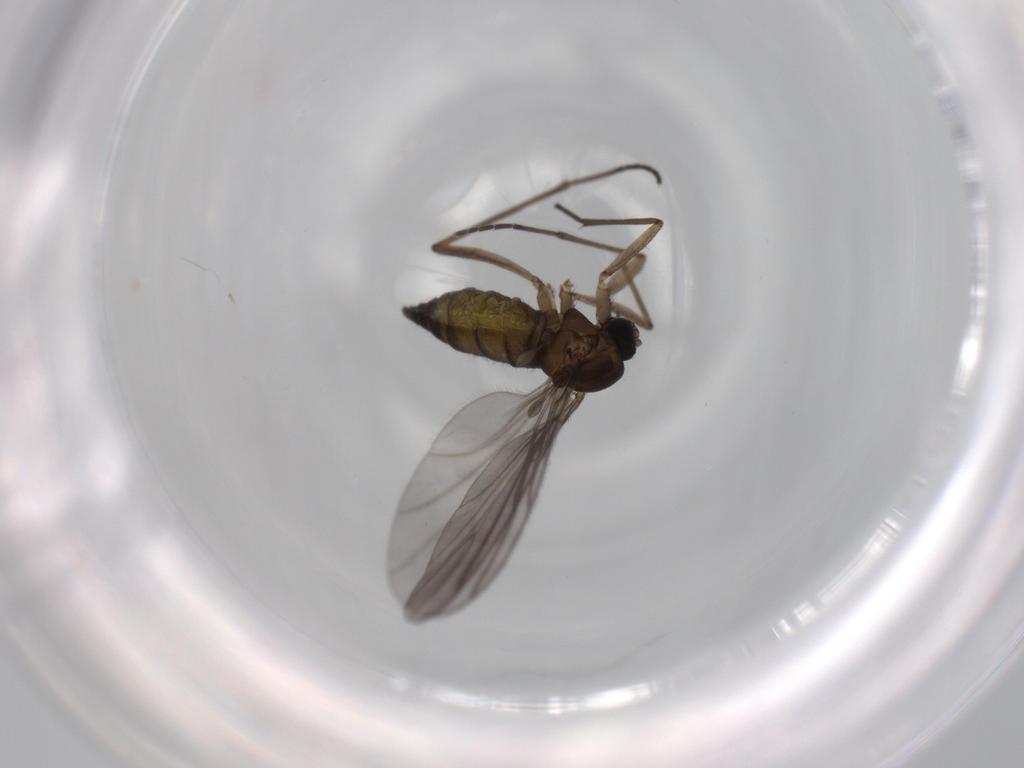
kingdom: Animalia
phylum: Arthropoda
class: Insecta
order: Diptera
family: Sciaridae
